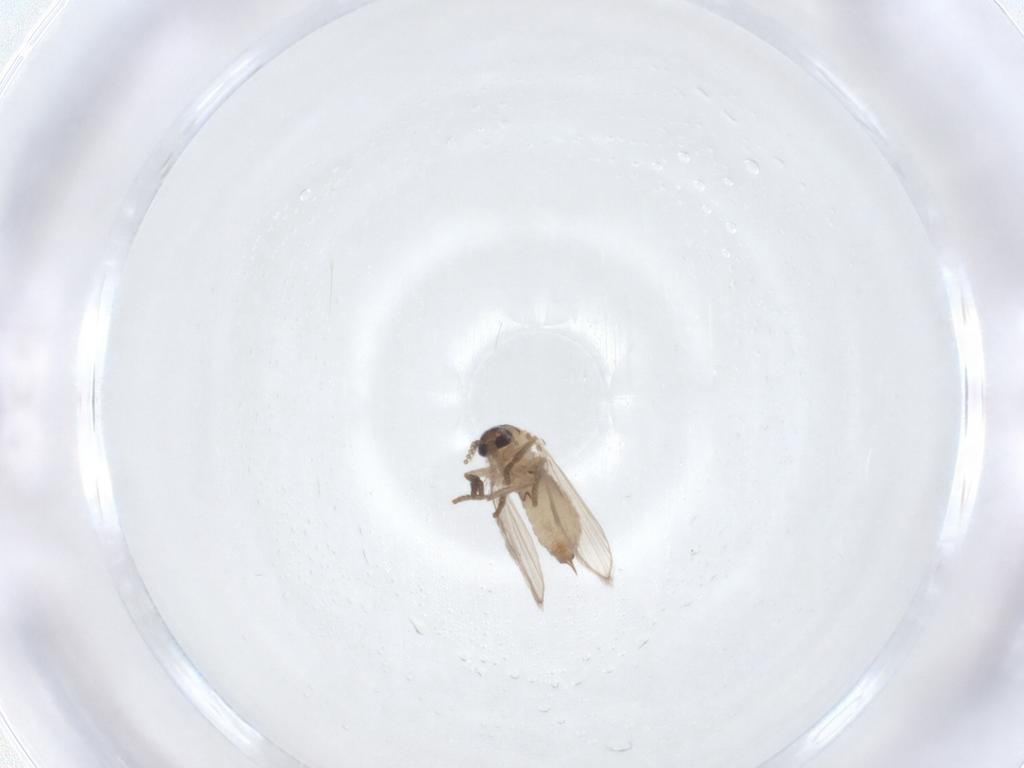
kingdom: Animalia
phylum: Arthropoda
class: Insecta
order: Diptera
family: Psychodidae
